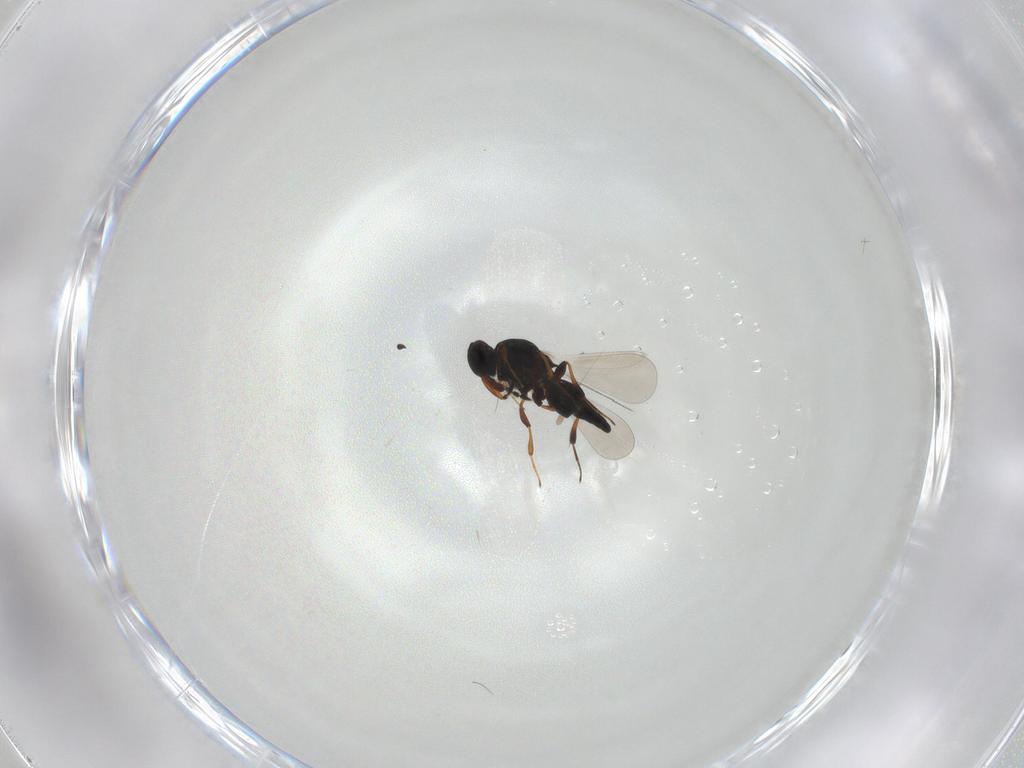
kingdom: Animalia
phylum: Arthropoda
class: Insecta
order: Hymenoptera
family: Platygastridae
